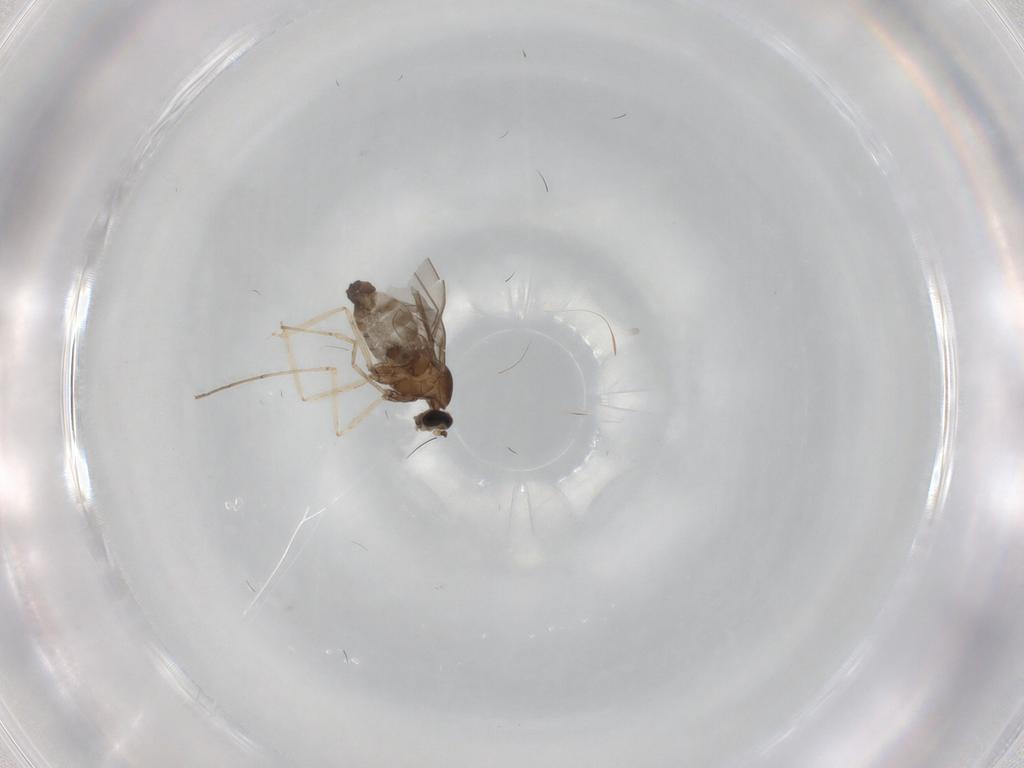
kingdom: Animalia
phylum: Arthropoda
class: Insecta
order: Diptera
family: Cecidomyiidae
